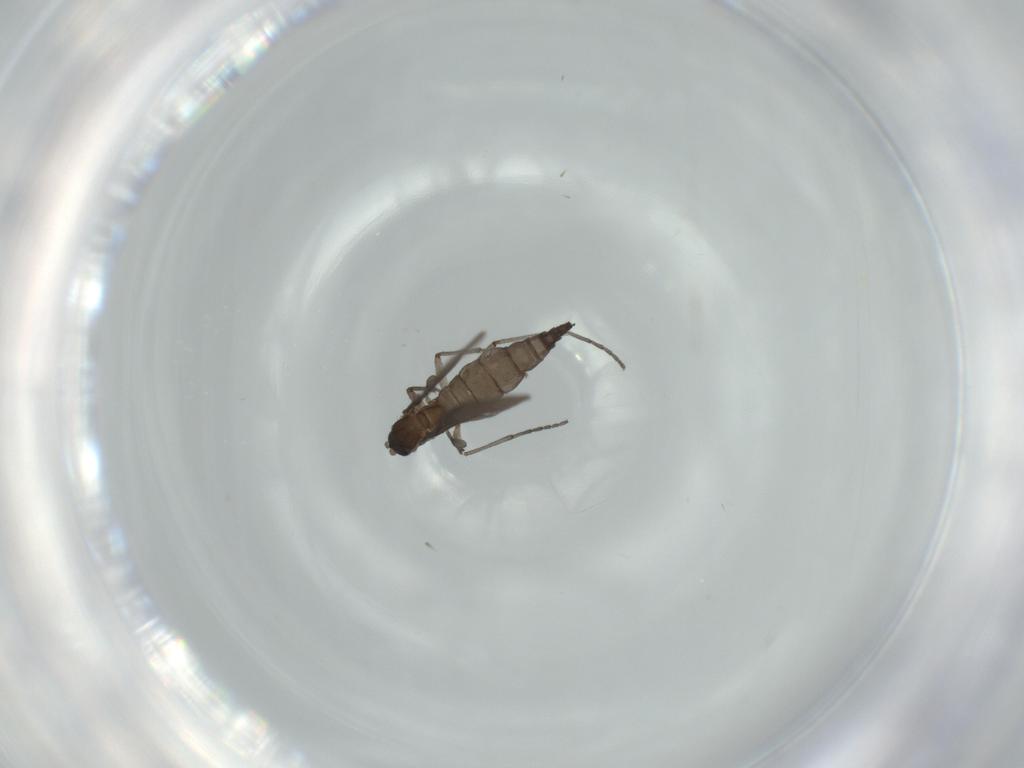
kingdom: Animalia
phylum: Arthropoda
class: Insecta
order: Diptera
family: Sciaridae
